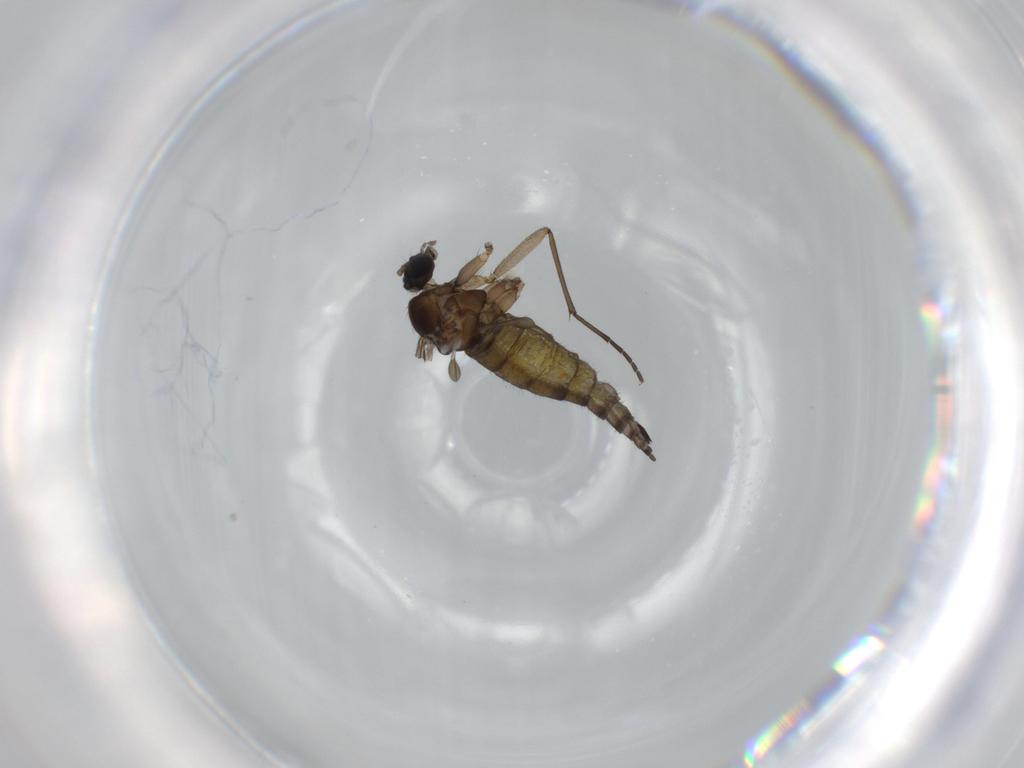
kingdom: Animalia
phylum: Arthropoda
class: Insecta
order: Diptera
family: Sciaridae
